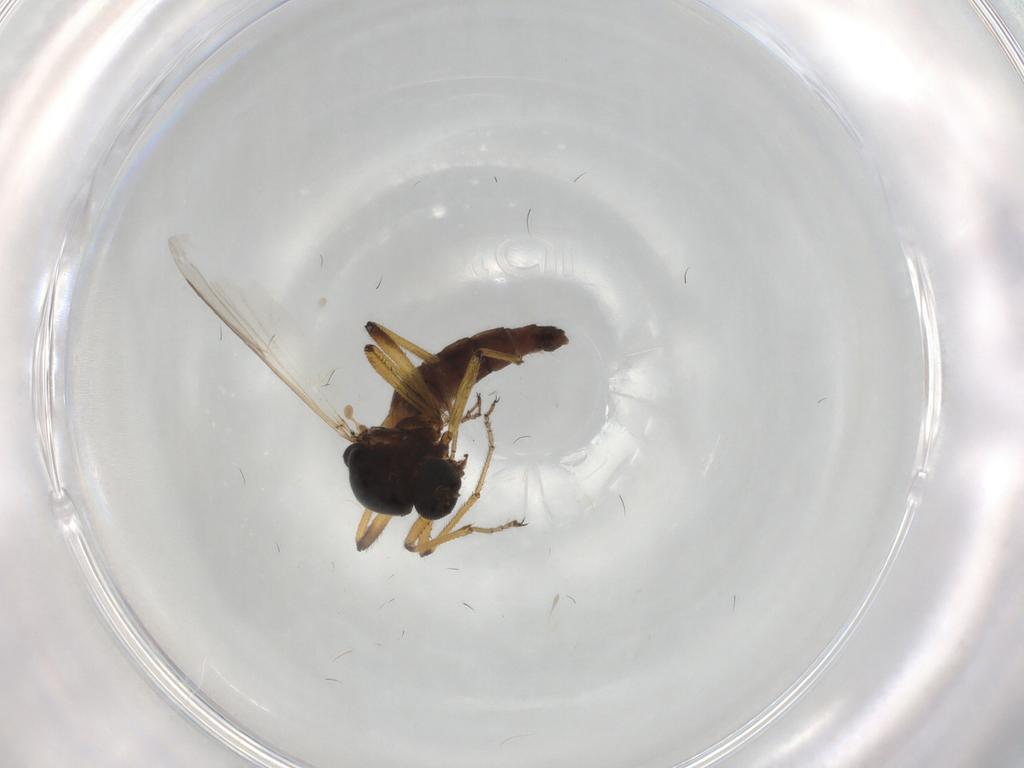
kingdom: Animalia
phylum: Arthropoda
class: Insecta
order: Diptera
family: Ceratopogonidae
